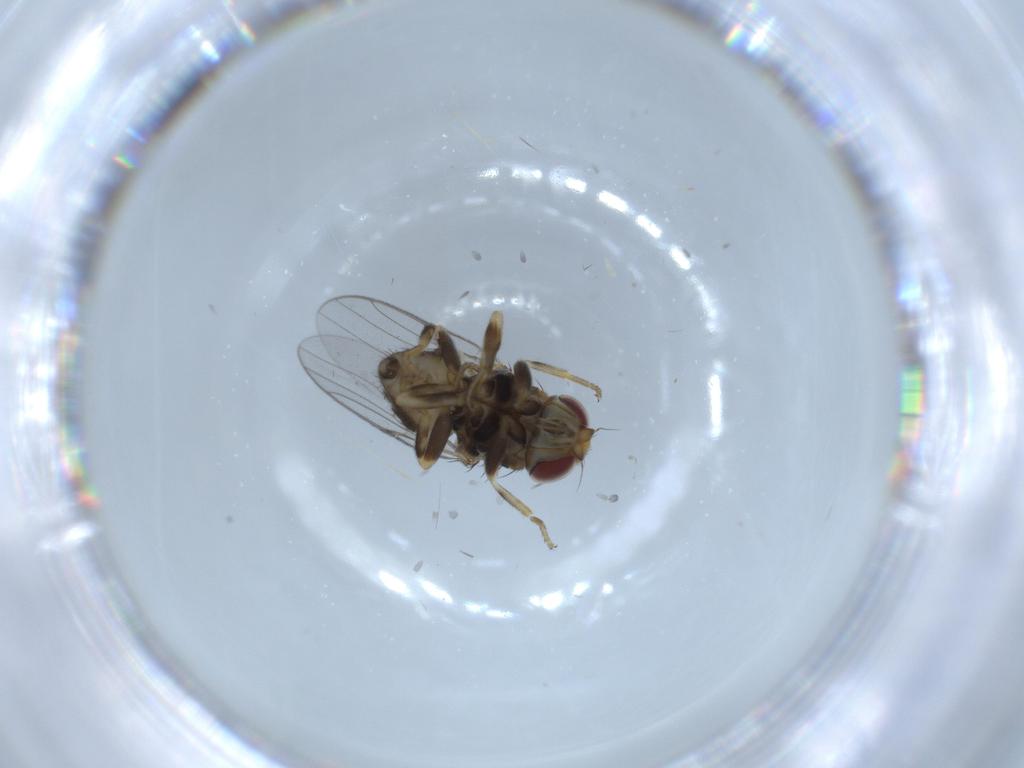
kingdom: Animalia
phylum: Arthropoda
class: Insecta
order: Diptera
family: Chloropidae
